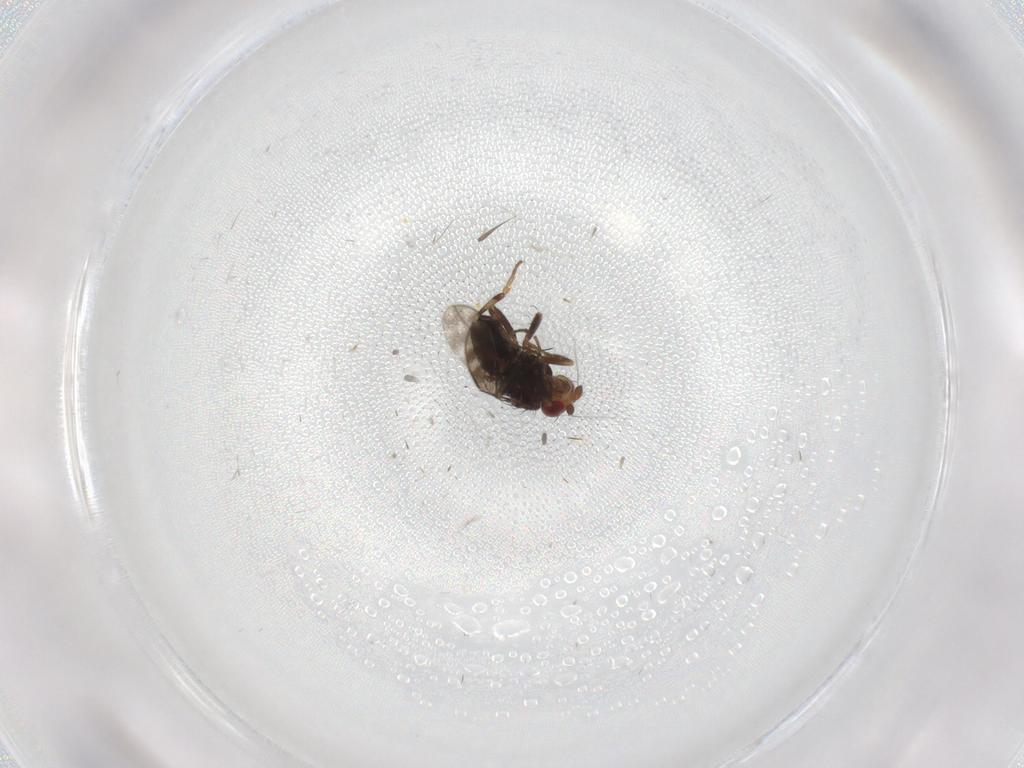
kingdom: Animalia
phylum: Arthropoda
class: Insecta
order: Diptera
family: Sphaeroceridae
